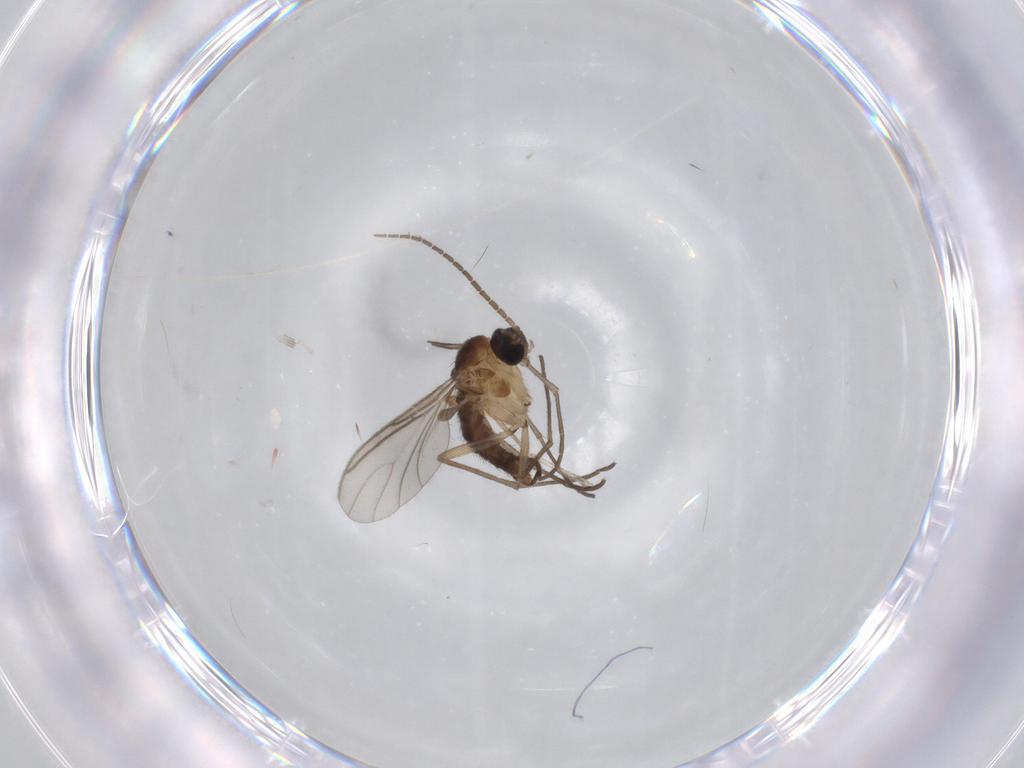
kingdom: Animalia
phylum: Arthropoda
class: Insecta
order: Diptera
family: Sciaridae
